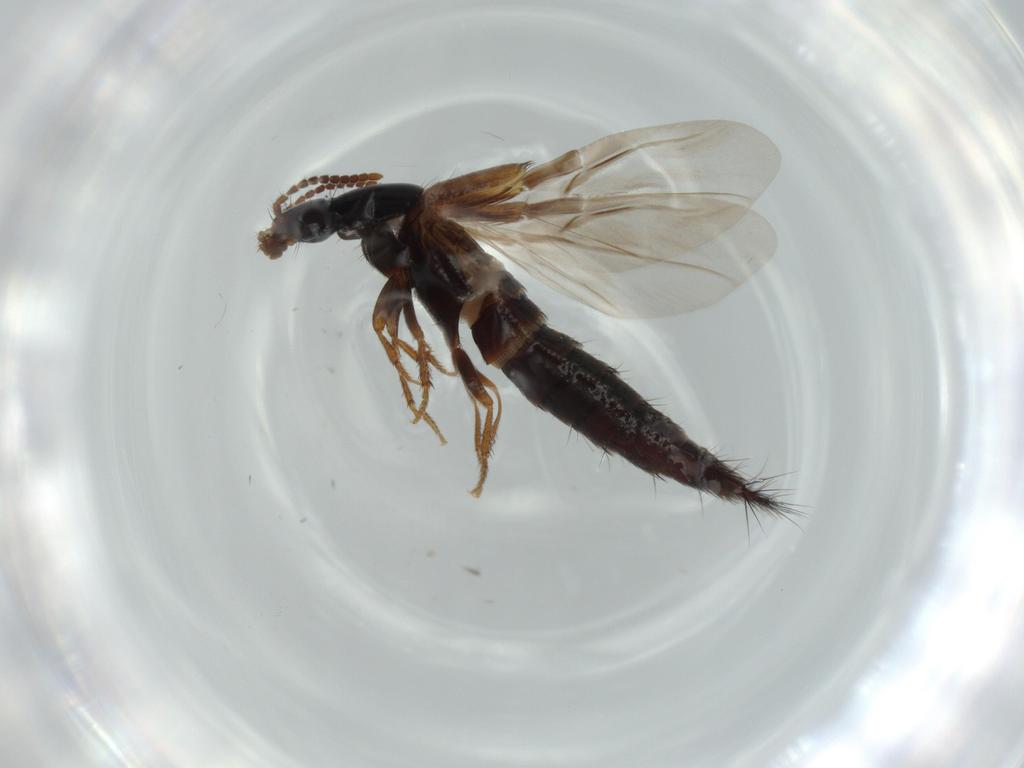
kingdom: Animalia
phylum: Arthropoda
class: Insecta
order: Coleoptera
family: Staphylinidae
